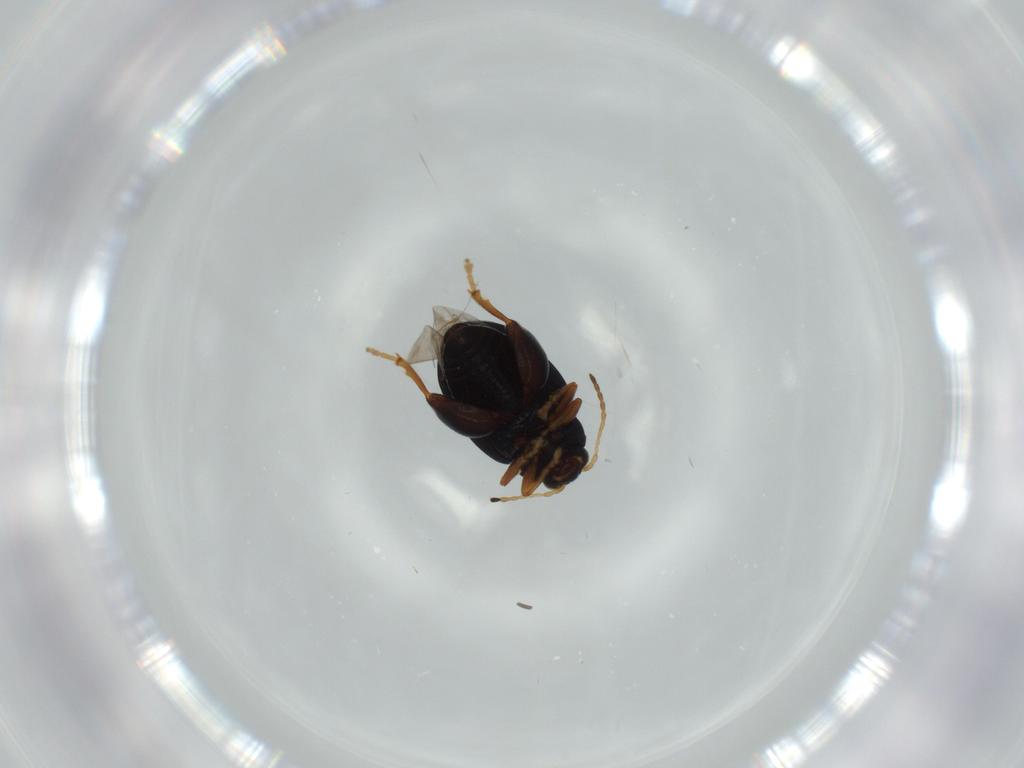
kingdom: Animalia
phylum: Arthropoda
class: Insecta
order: Coleoptera
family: Chrysomelidae
